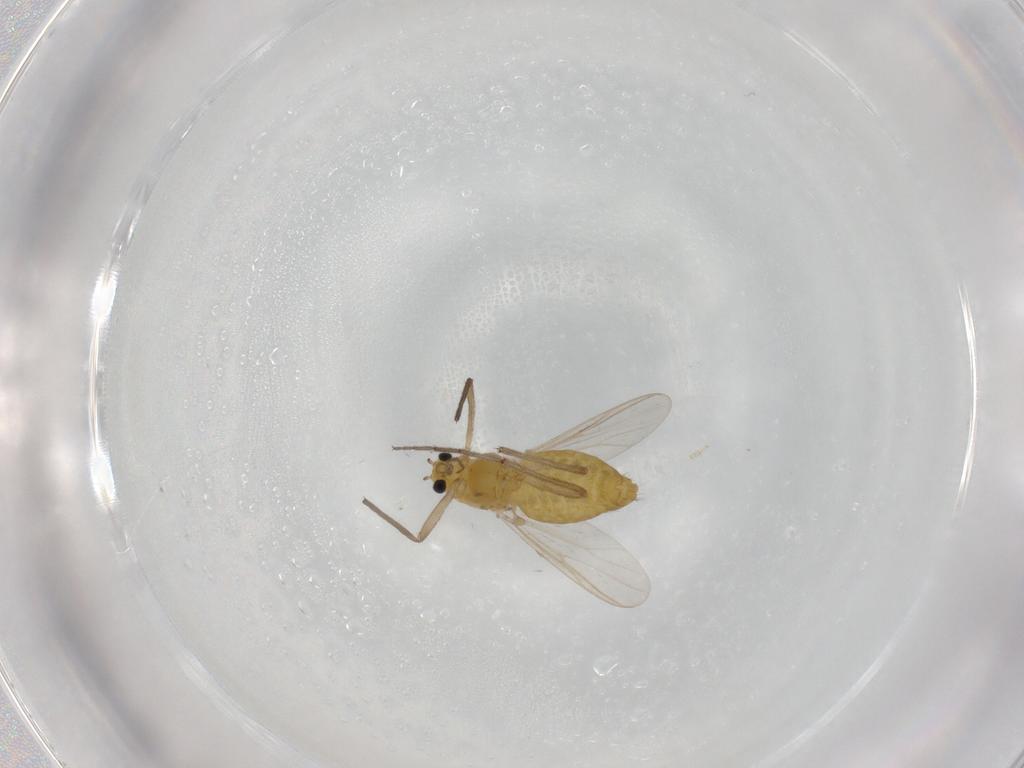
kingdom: Animalia
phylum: Arthropoda
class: Insecta
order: Diptera
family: Chironomidae
